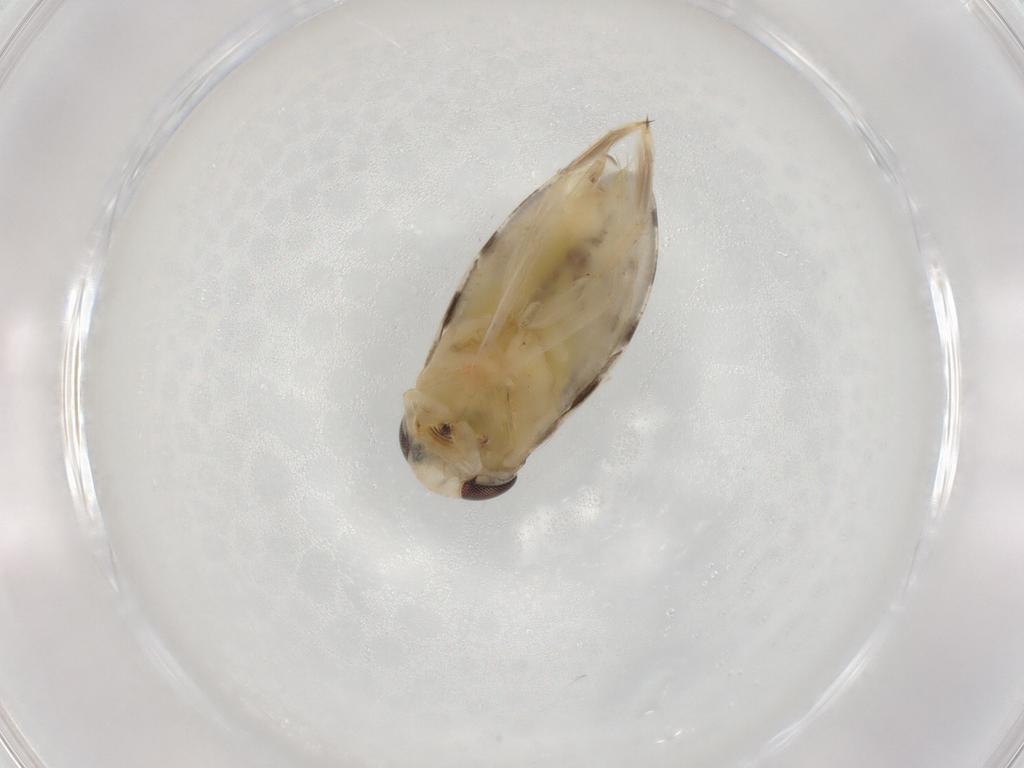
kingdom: Animalia
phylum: Arthropoda
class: Insecta
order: Hemiptera
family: Corixidae
